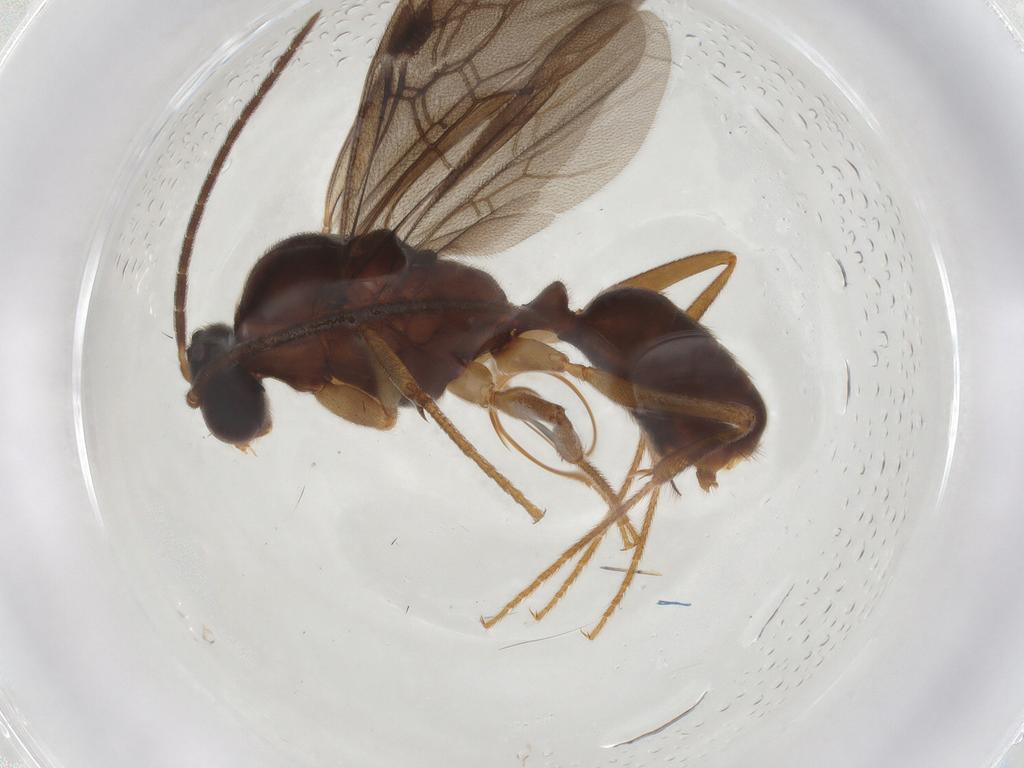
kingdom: Animalia
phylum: Arthropoda
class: Insecta
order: Hymenoptera
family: Formicidae
